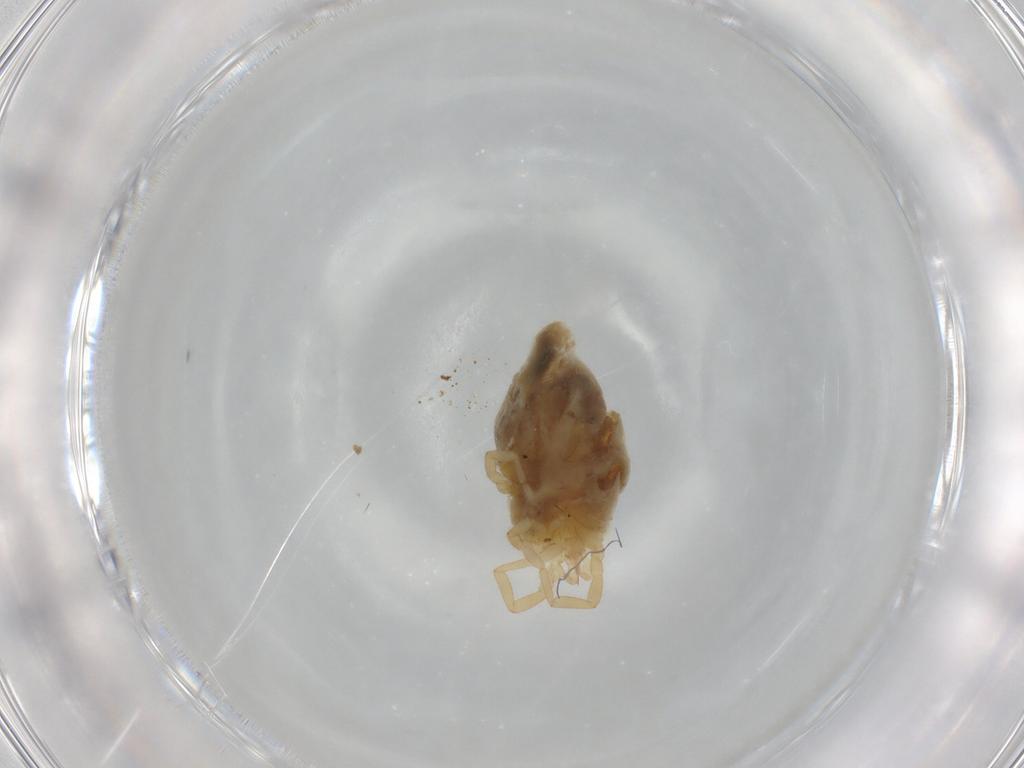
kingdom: Animalia
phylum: Arthropoda
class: Arachnida
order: Trombidiformes
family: Erythraeidae
